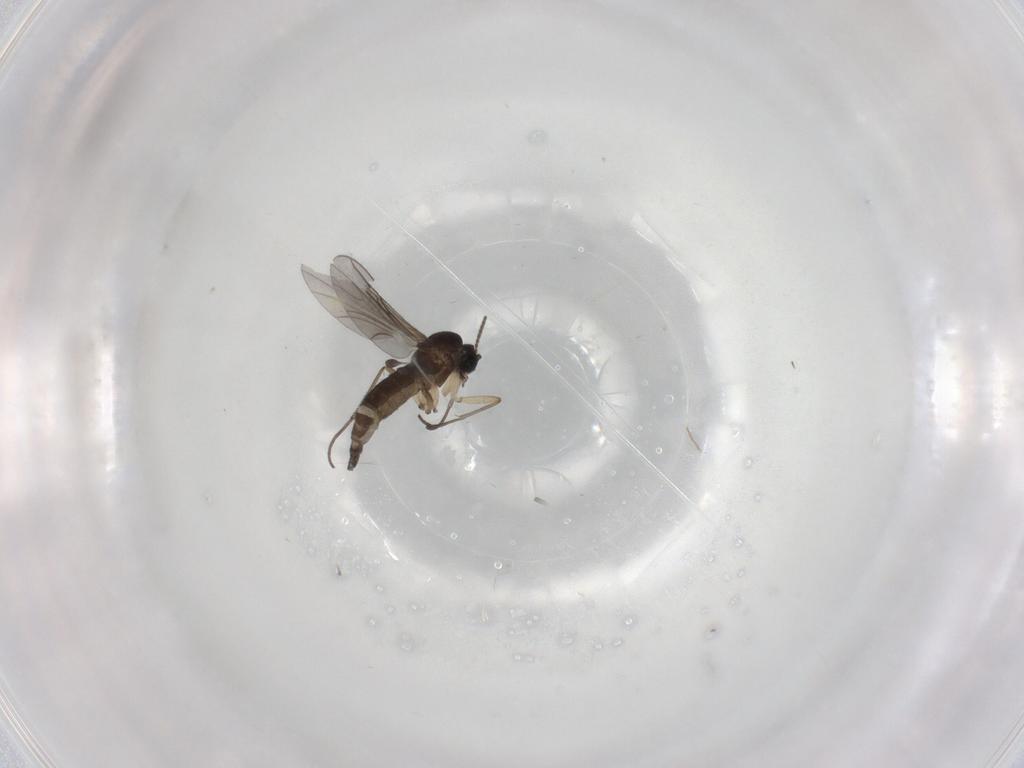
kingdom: Animalia
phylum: Arthropoda
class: Insecta
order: Diptera
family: Sciaridae
